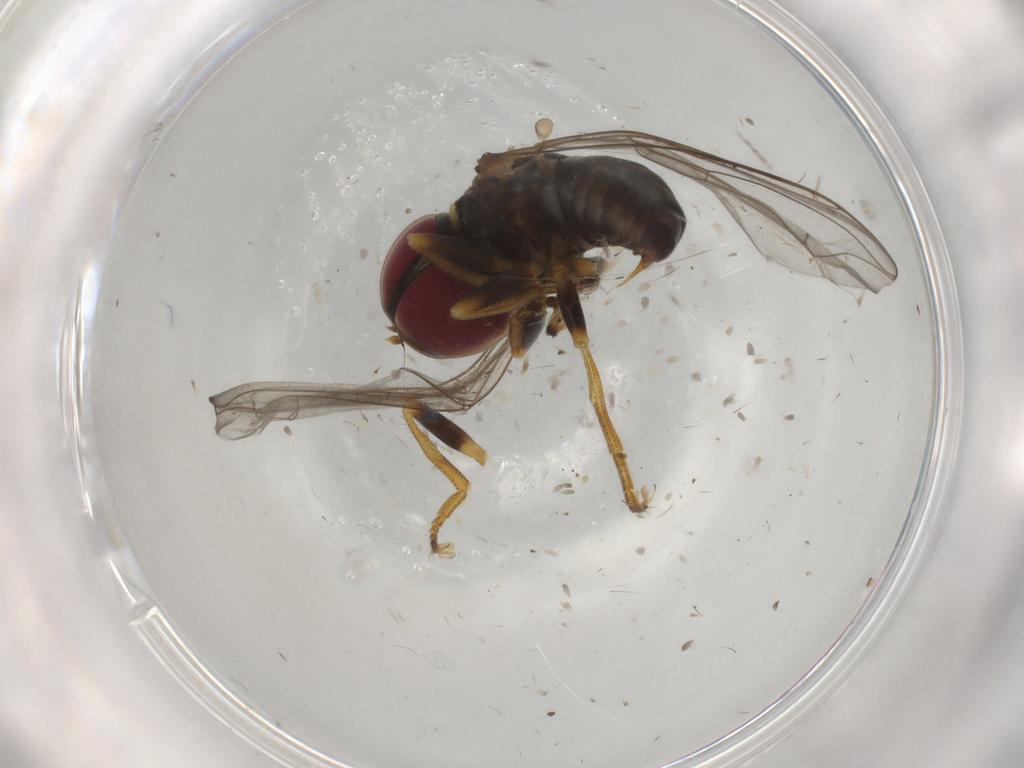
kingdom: Animalia
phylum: Arthropoda
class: Insecta
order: Diptera
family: Pipunculidae
